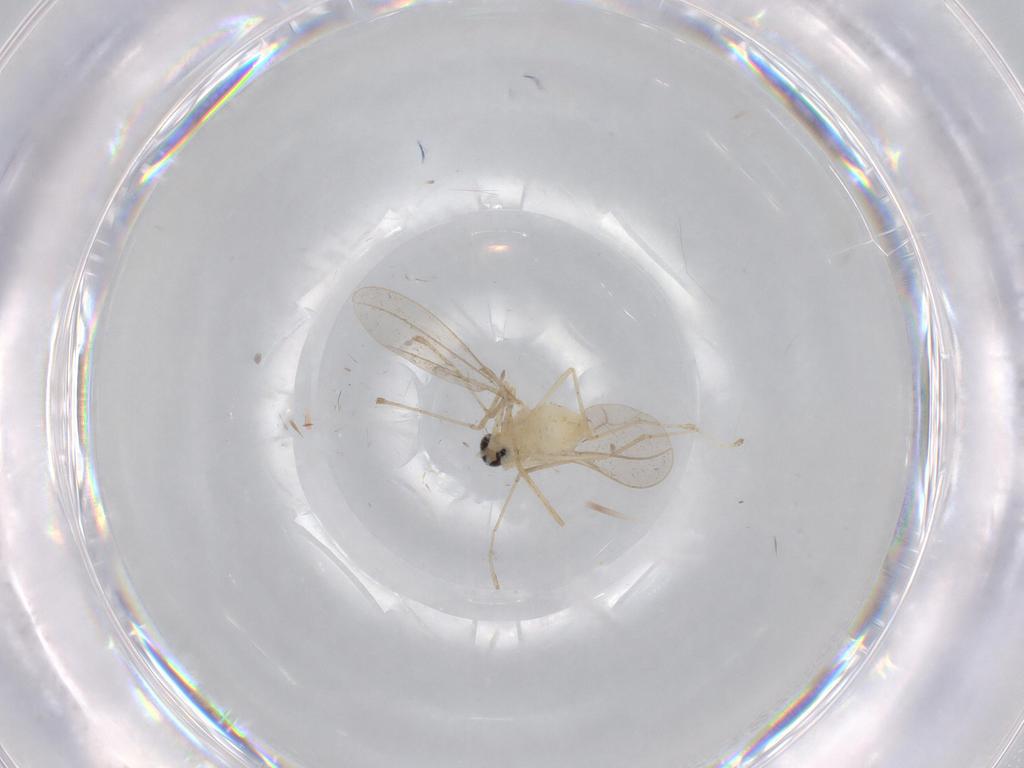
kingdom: Animalia
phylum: Arthropoda
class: Insecta
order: Diptera
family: Cecidomyiidae
